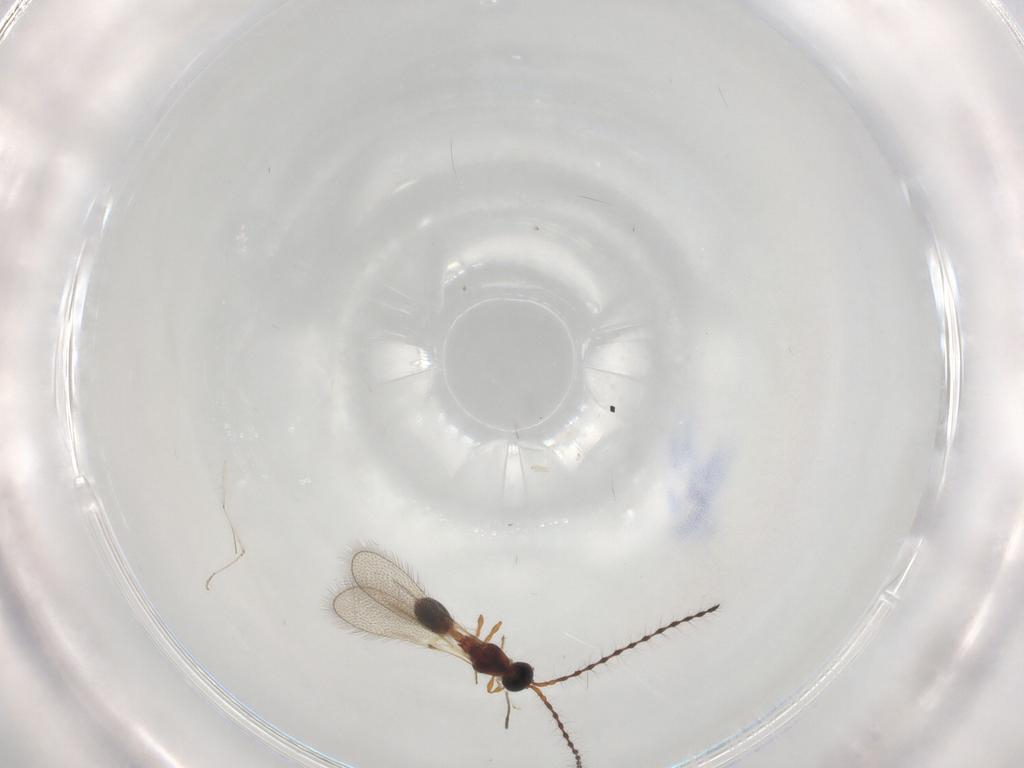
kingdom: Animalia
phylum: Arthropoda
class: Insecta
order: Hymenoptera
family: Diapriidae
